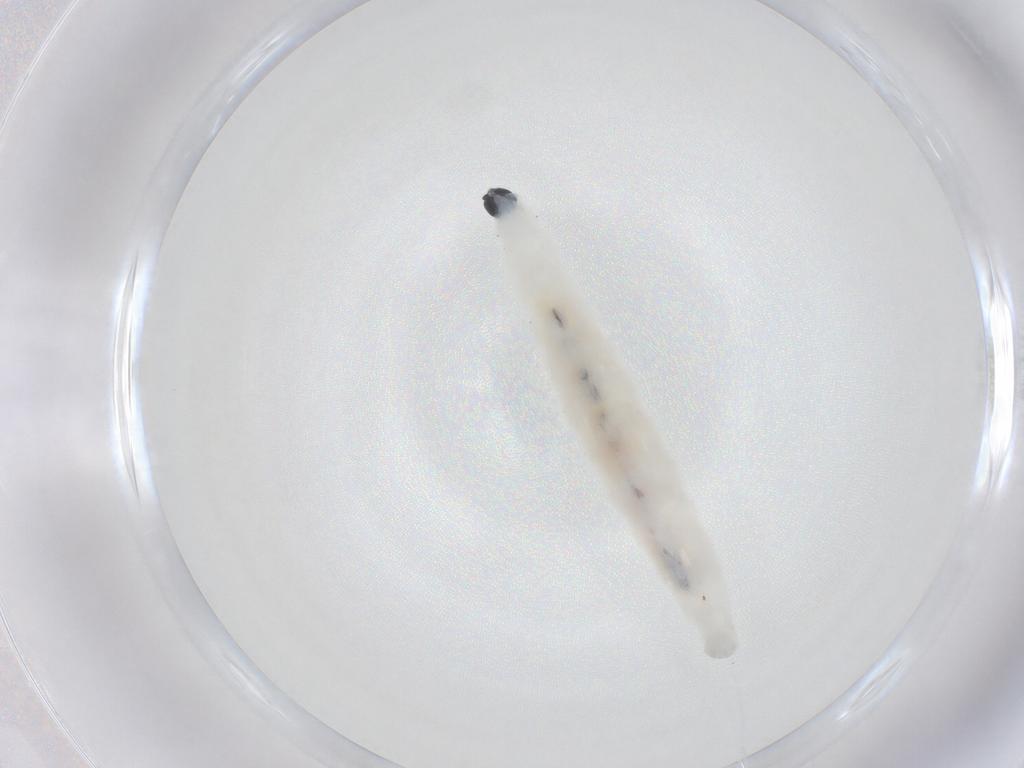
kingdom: Animalia
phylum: Arthropoda
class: Insecta
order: Diptera
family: Sciaridae
